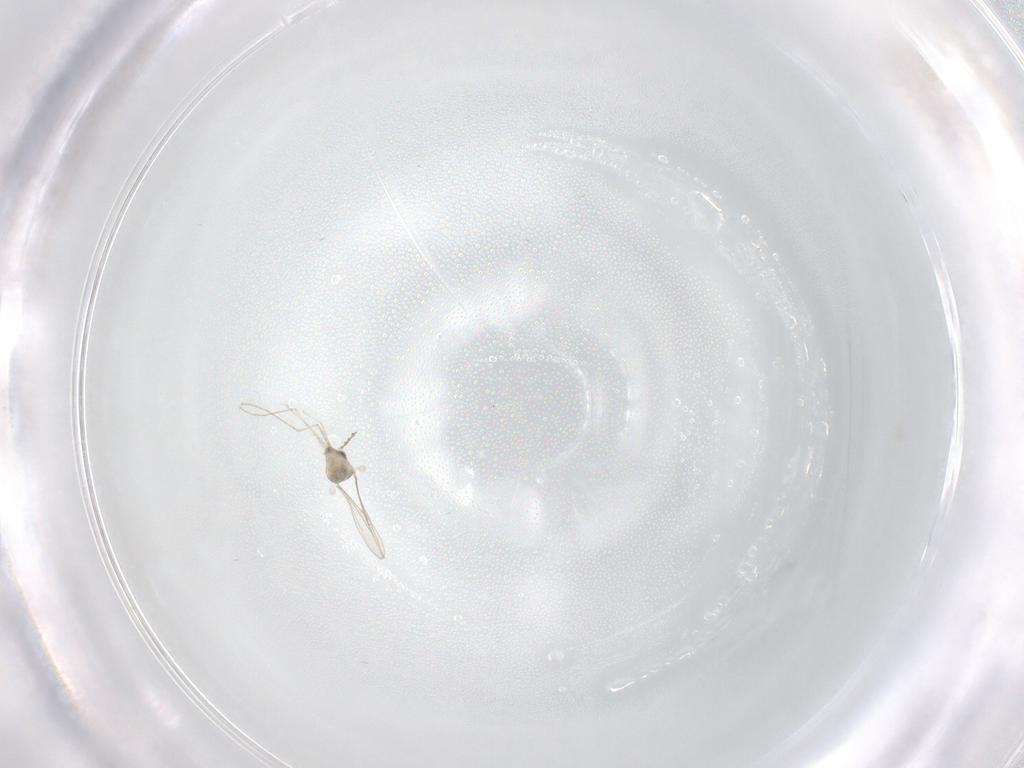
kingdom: Animalia
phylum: Arthropoda
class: Insecta
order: Diptera
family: Cecidomyiidae
